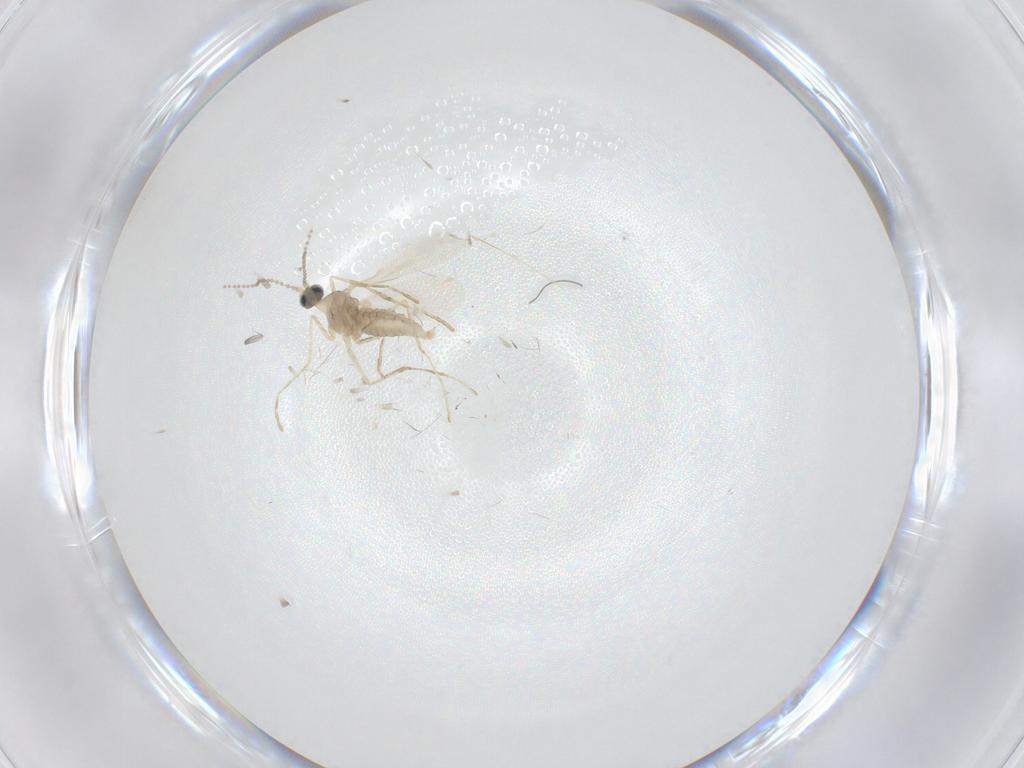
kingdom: Animalia
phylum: Arthropoda
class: Insecta
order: Diptera
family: Cecidomyiidae
